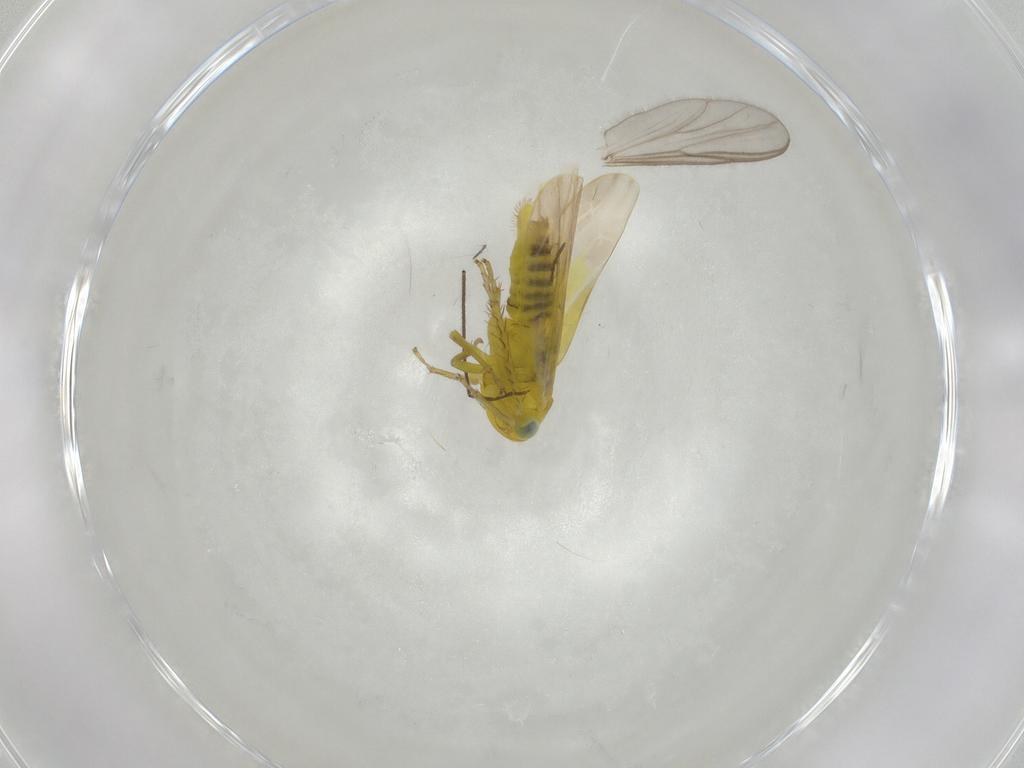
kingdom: Animalia
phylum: Arthropoda
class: Insecta
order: Hemiptera
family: Cicadellidae
